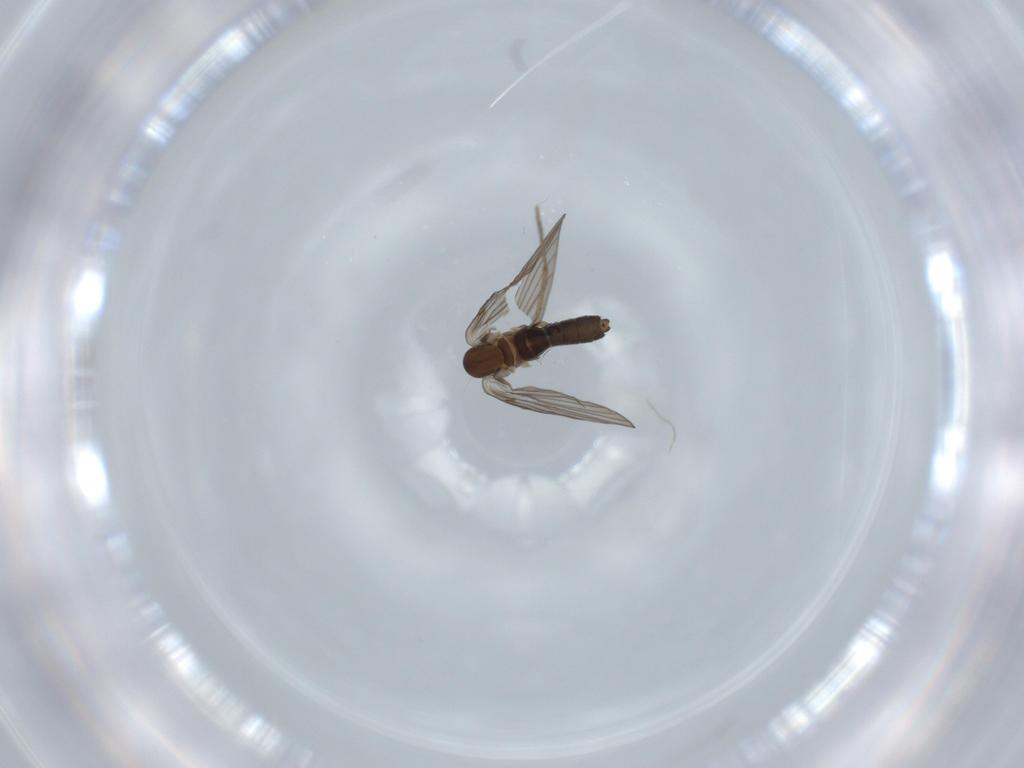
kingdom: Animalia
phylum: Arthropoda
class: Insecta
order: Diptera
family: Psychodidae
